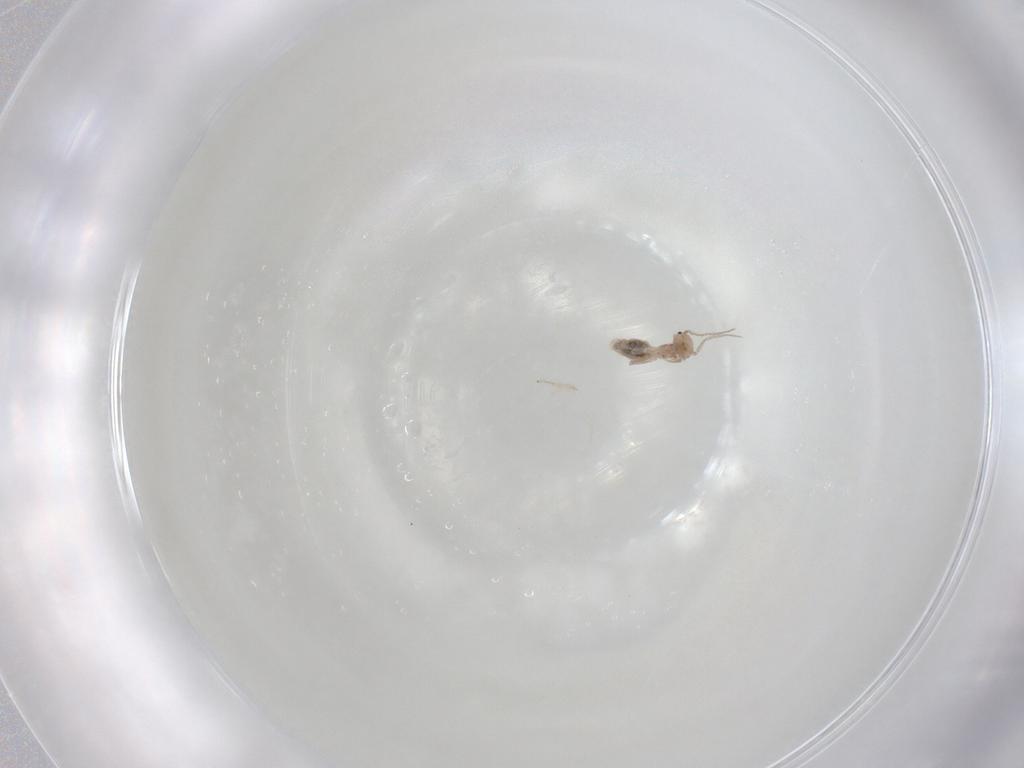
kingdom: Animalia
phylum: Arthropoda
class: Insecta
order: Psocodea
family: Ectopsocidae
